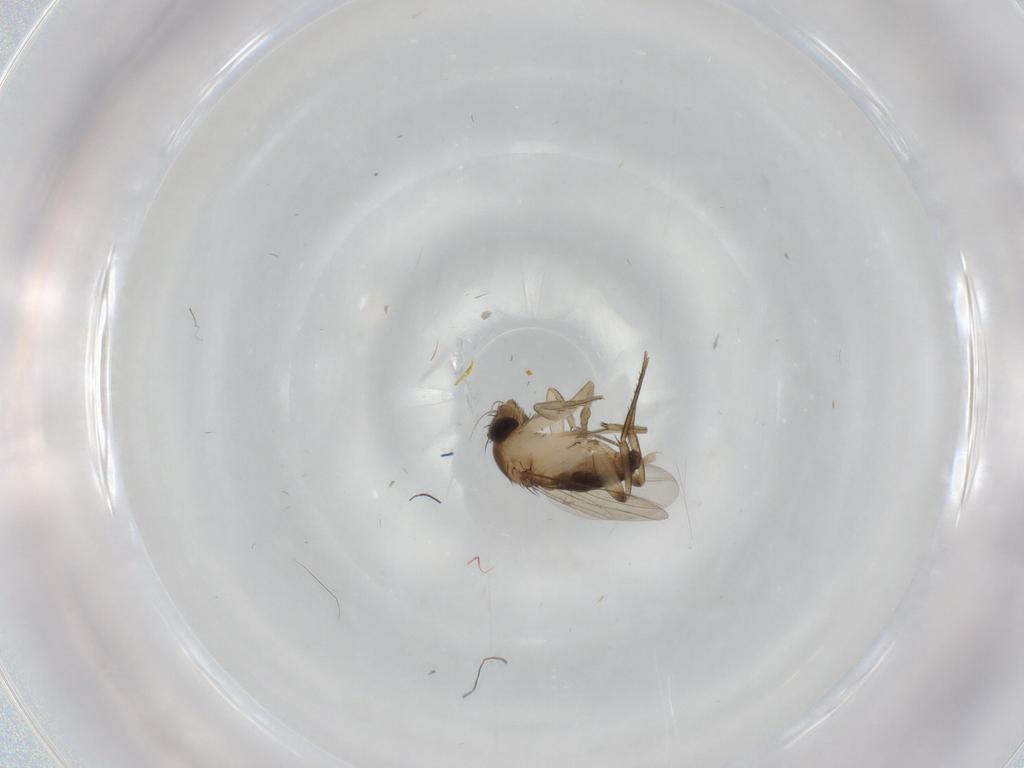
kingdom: Animalia
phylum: Arthropoda
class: Insecta
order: Diptera
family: Chironomidae
